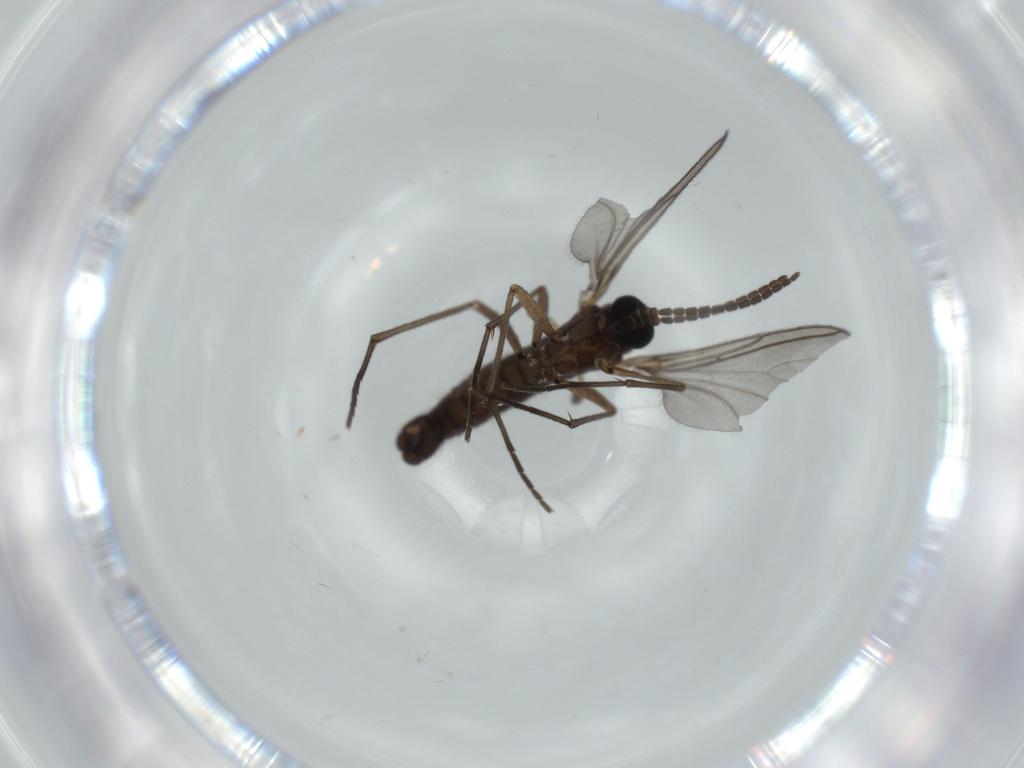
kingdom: Animalia
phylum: Arthropoda
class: Insecta
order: Diptera
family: Sciaridae
